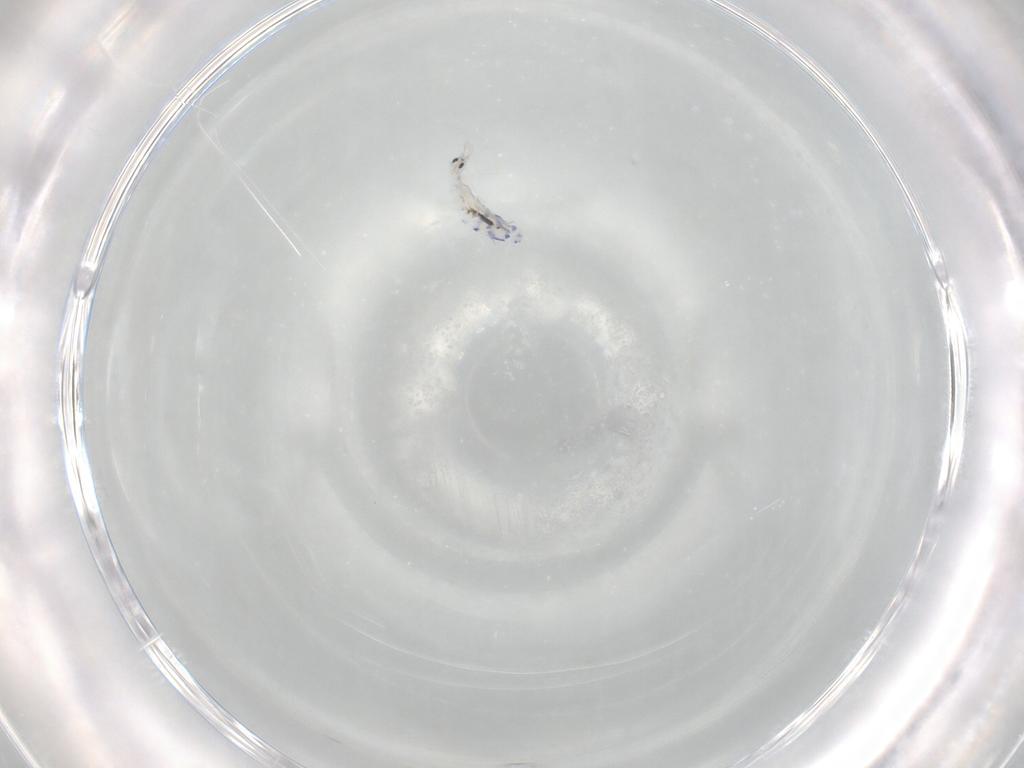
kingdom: Animalia
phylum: Arthropoda
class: Collembola
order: Entomobryomorpha
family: Entomobryidae
